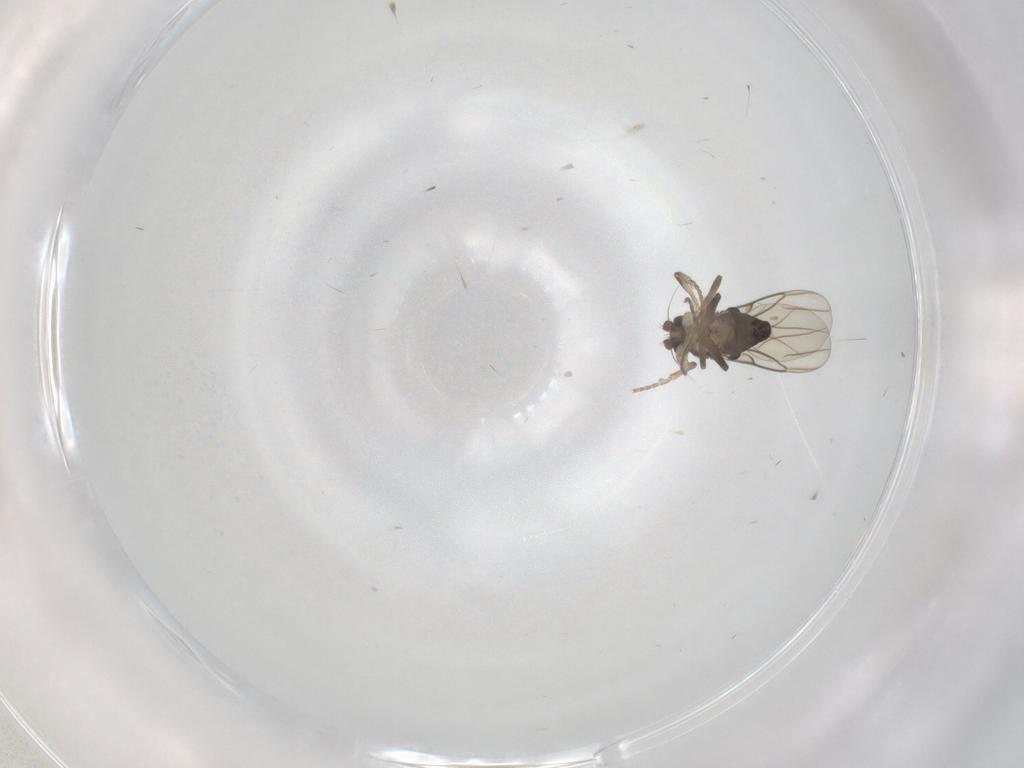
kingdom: Animalia
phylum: Arthropoda
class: Insecta
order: Diptera
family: Phoridae
